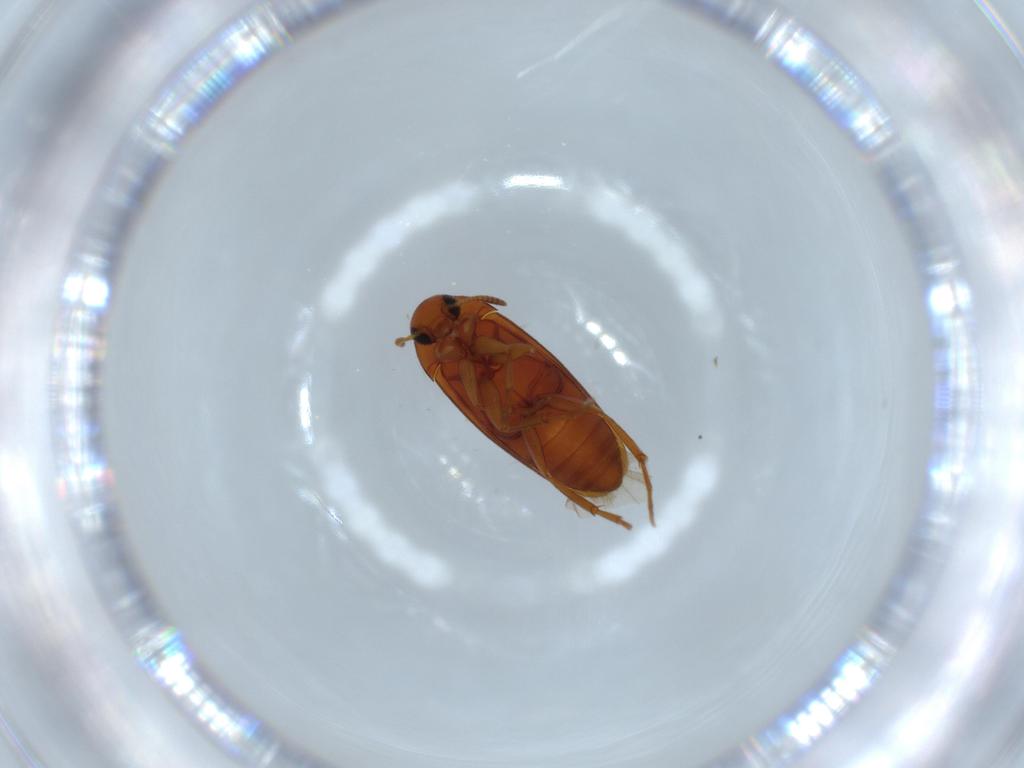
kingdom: Animalia
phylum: Arthropoda
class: Insecta
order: Coleoptera
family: Scraptiidae
